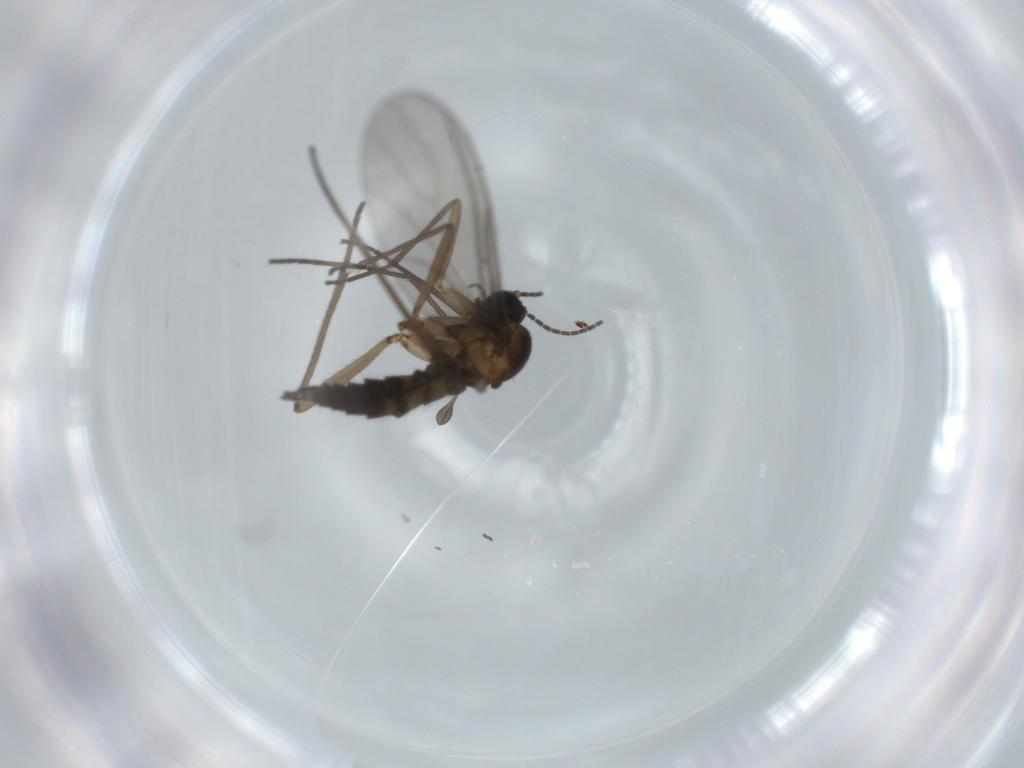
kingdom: Animalia
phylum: Arthropoda
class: Insecta
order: Diptera
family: Sciaridae
